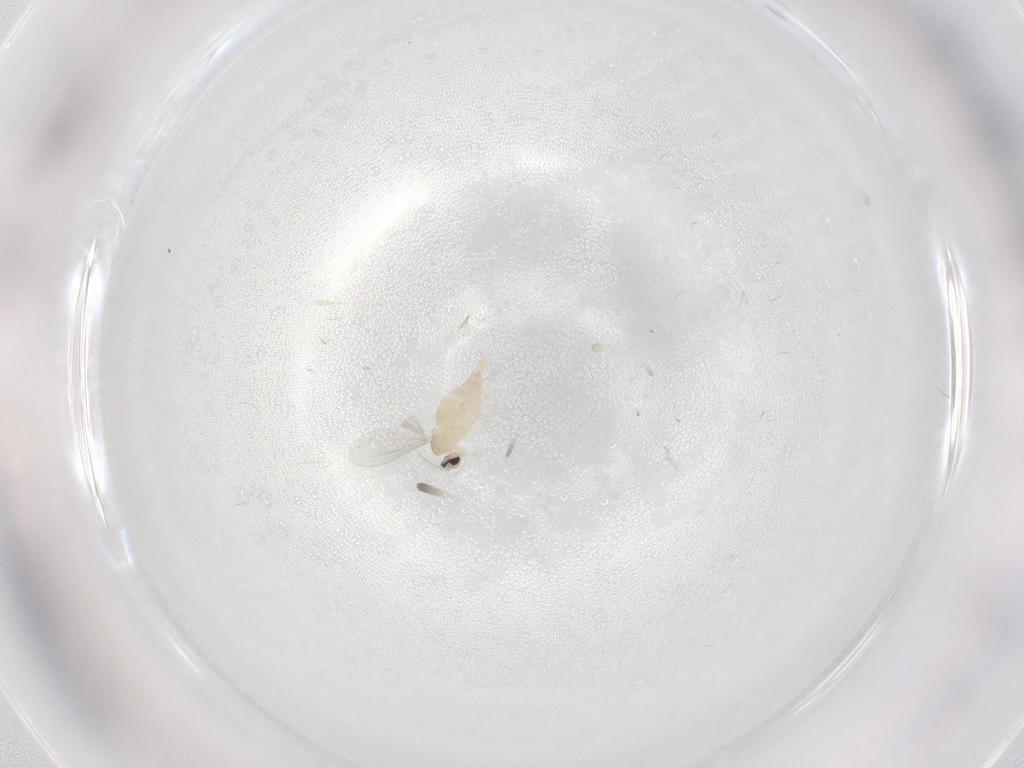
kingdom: Animalia
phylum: Arthropoda
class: Insecta
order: Diptera
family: Cecidomyiidae
